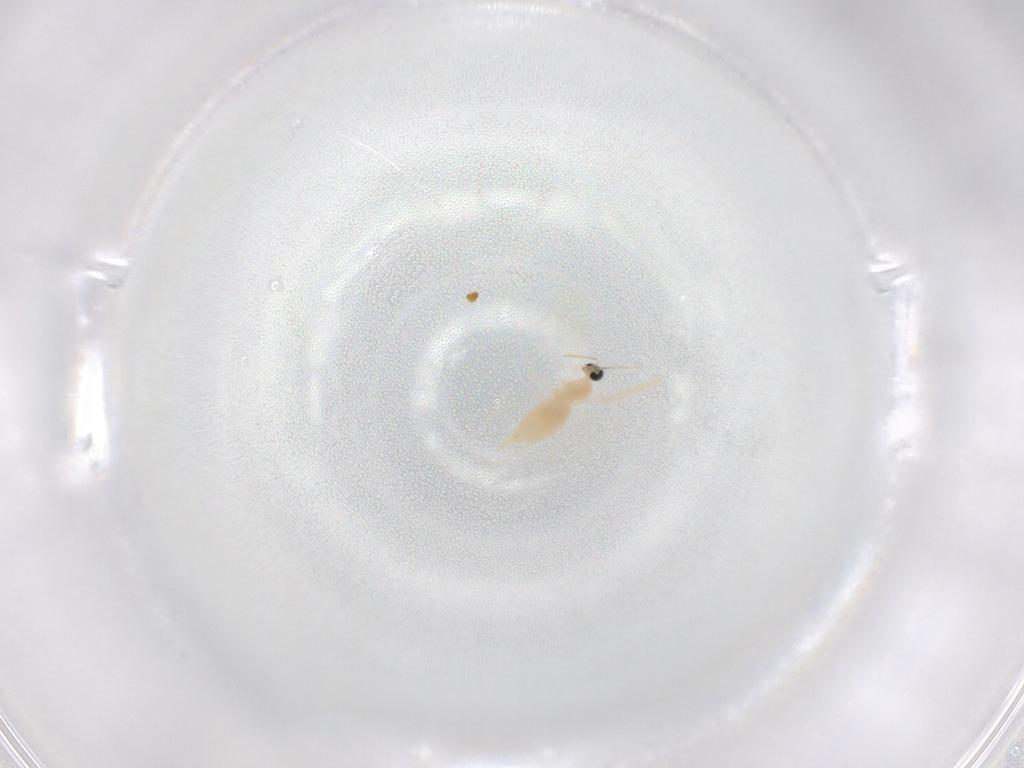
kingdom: Animalia
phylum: Arthropoda
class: Insecta
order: Diptera
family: Cecidomyiidae
